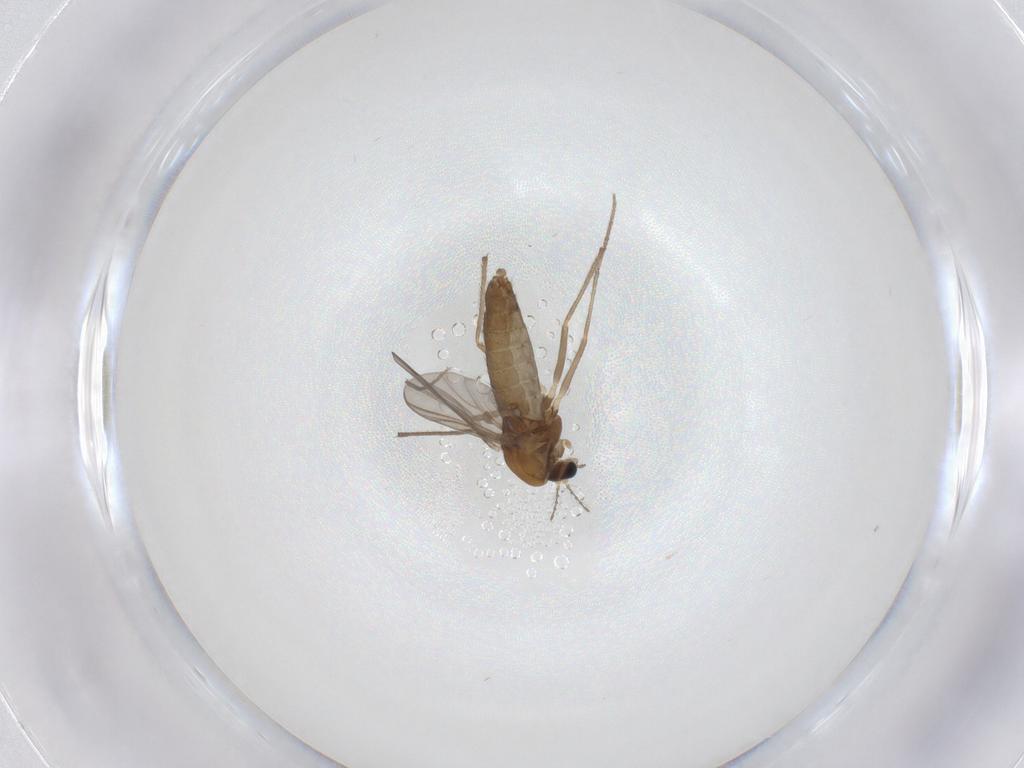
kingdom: Animalia
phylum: Arthropoda
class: Insecta
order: Diptera
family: Chironomidae
